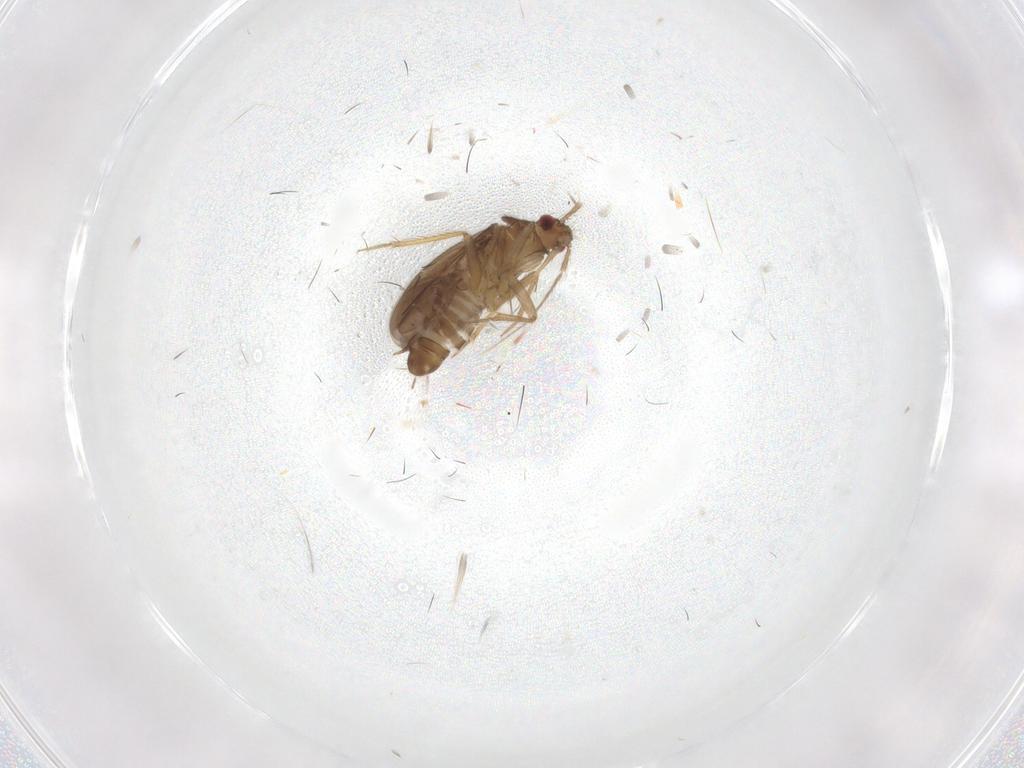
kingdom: Animalia
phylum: Arthropoda
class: Insecta
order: Hemiptera
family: Ceratocombidae
